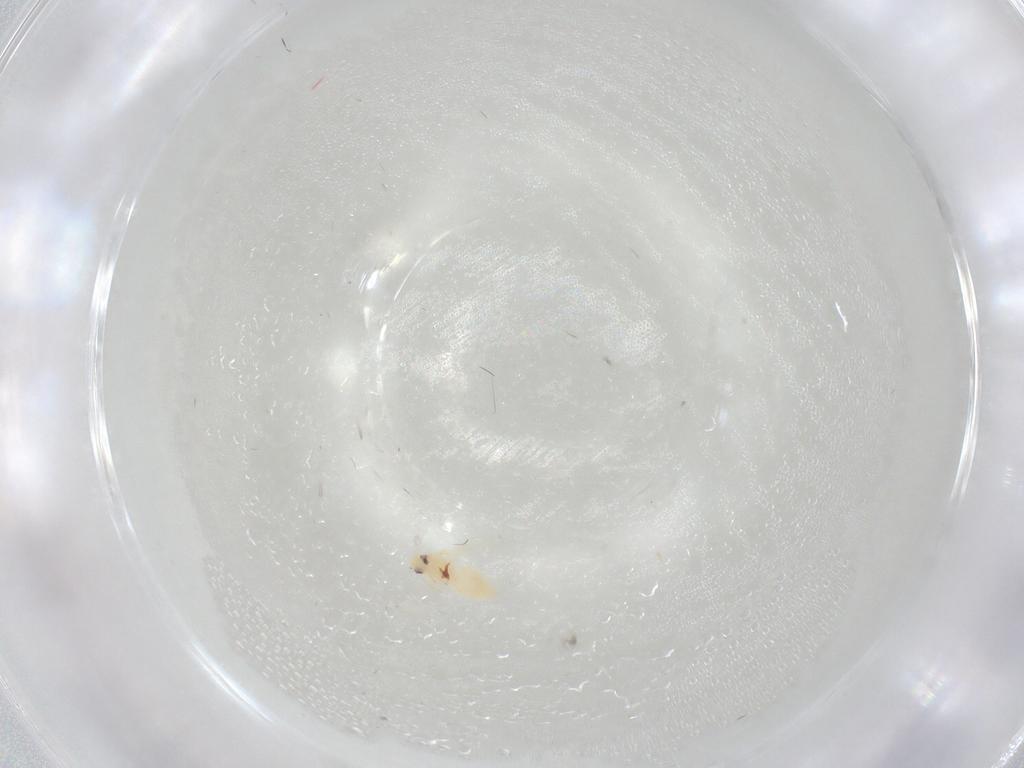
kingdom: Animalia
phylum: Arthropoda
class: Insecta
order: Hemiptera
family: Aleyrodidae
